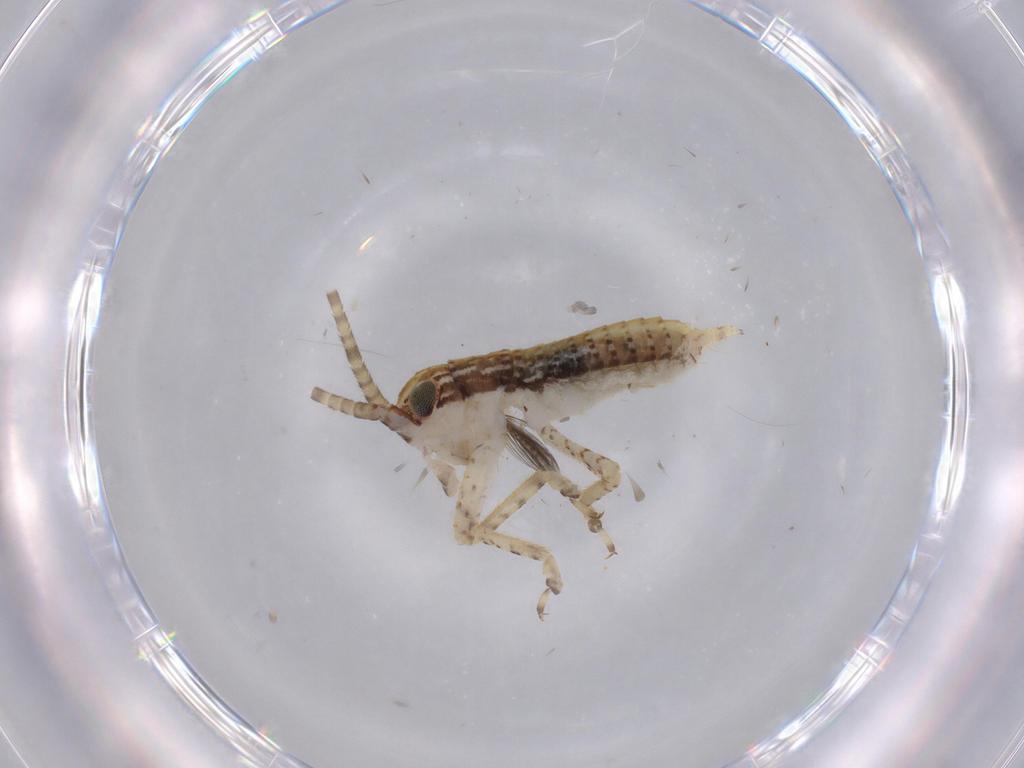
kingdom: Animalia
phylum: Arthropoda
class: Insecta
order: Orthoptera
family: Gryllidae
